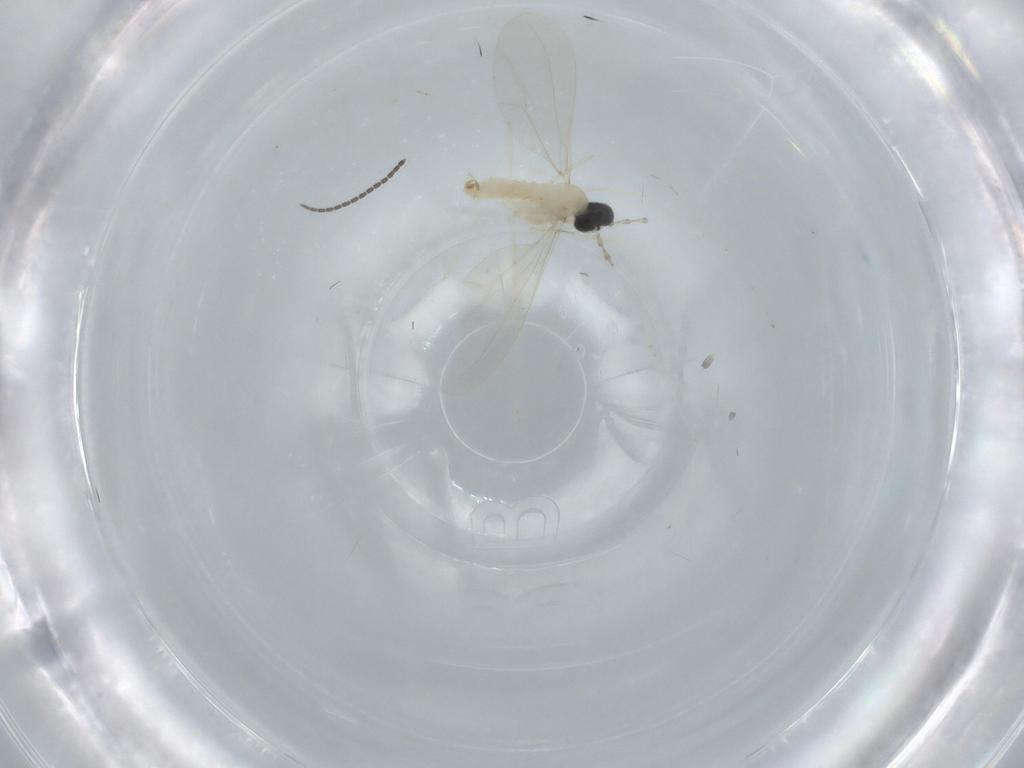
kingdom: Animalia
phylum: Arthropoda
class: Insecta
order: Diptera
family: Cecidomyiidae
